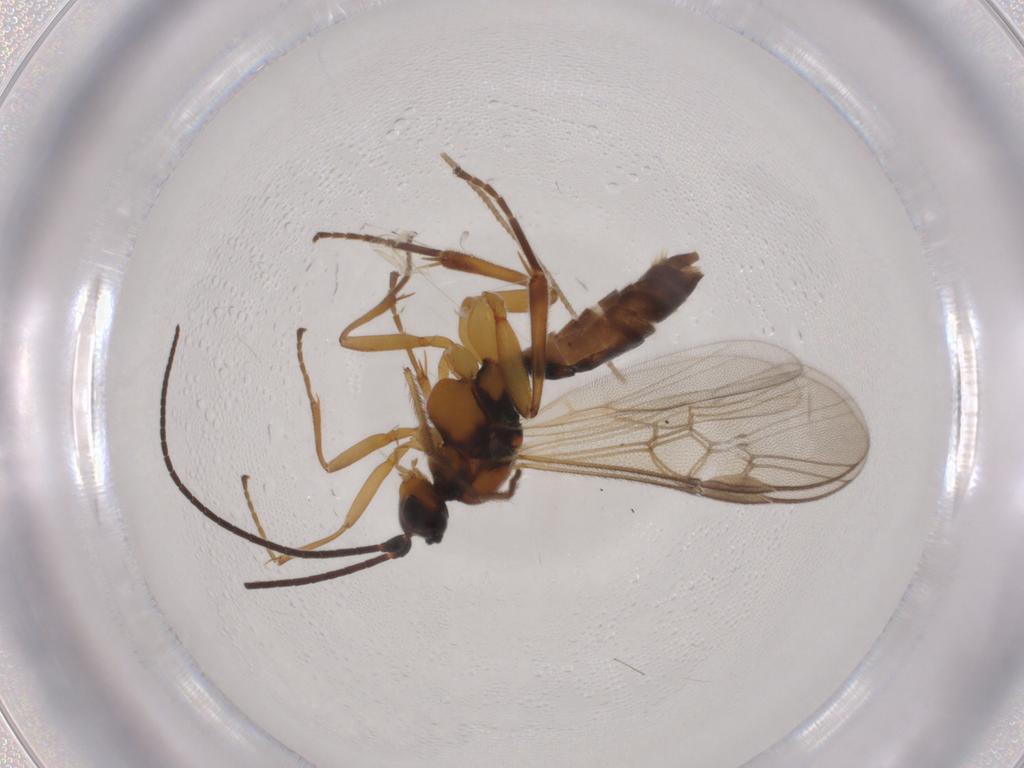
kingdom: Animalia
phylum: Arthropoda
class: Insecta
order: Hymenoptera
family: Braconidae
